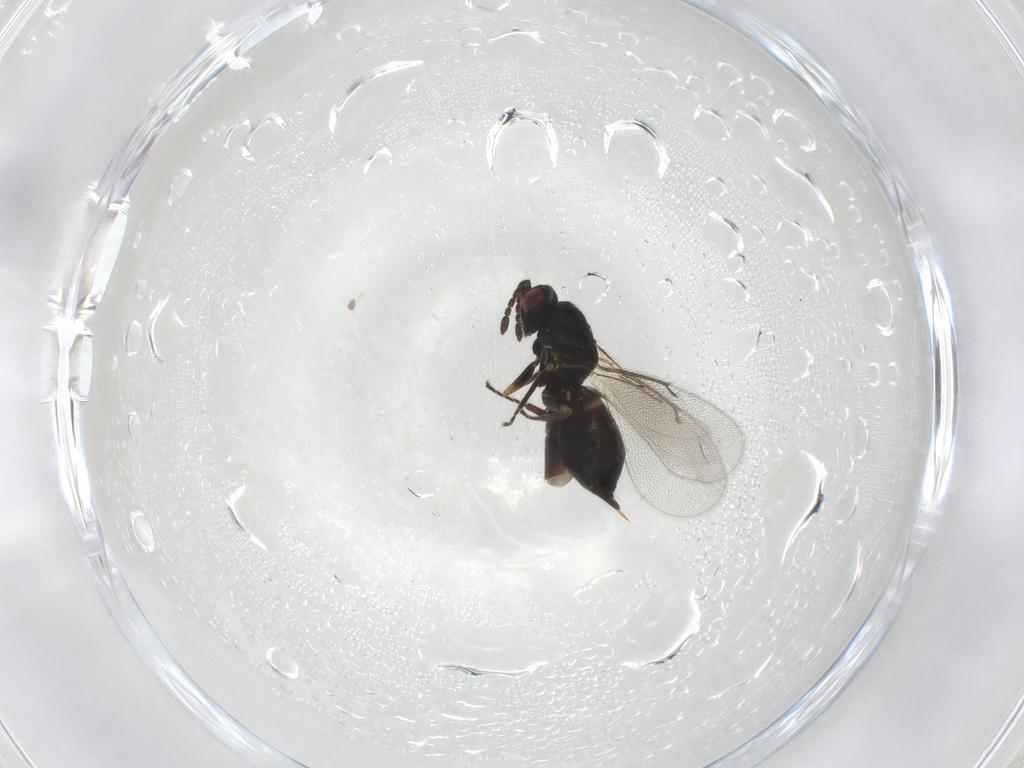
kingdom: Animalia
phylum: Arthropoda
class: Insecta
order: Hymenoptera
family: Eulophidae
